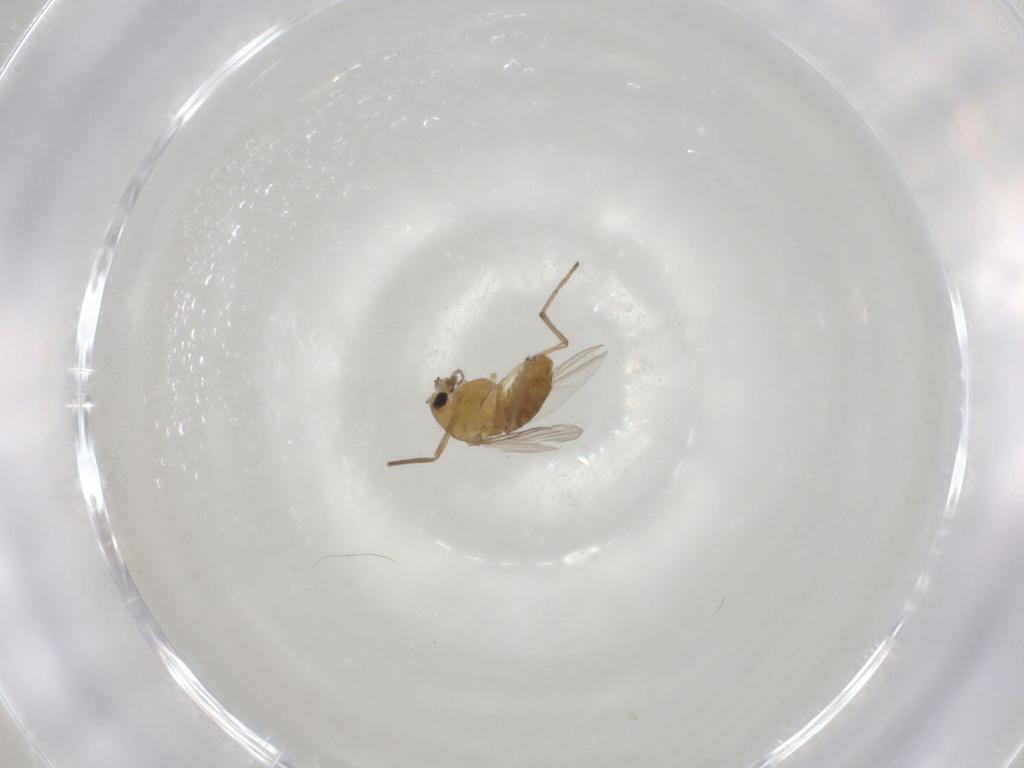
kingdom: Animalia
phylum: Arthropoda
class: Insecta
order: Diptera
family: Chironomidae
